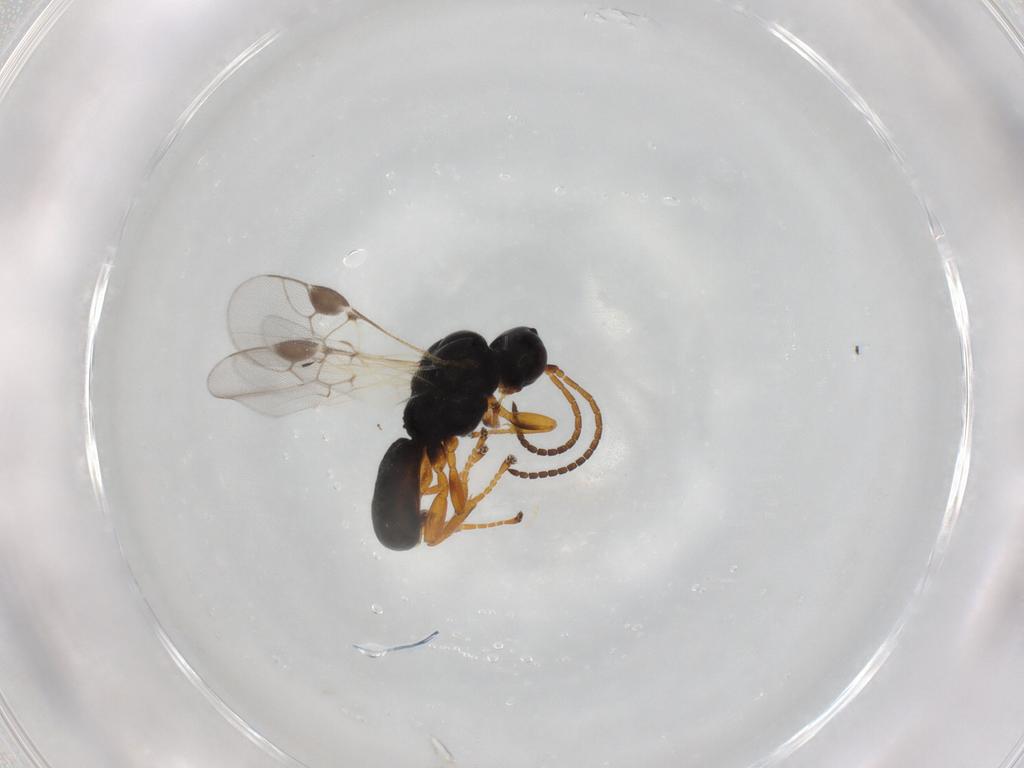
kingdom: Animalia
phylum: Arthropoda
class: Insecta
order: Hymenoptera
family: Braconidae
